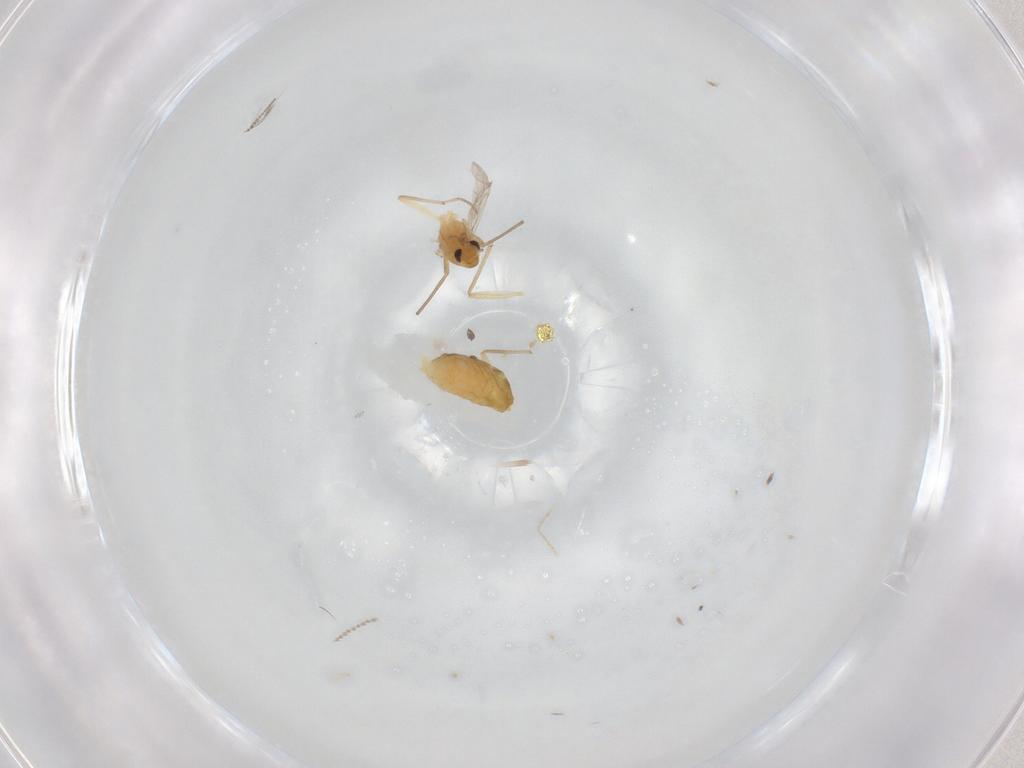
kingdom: Animalia
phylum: Arthropoda
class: Insecta
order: Diptera
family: Cecidomyiidae
